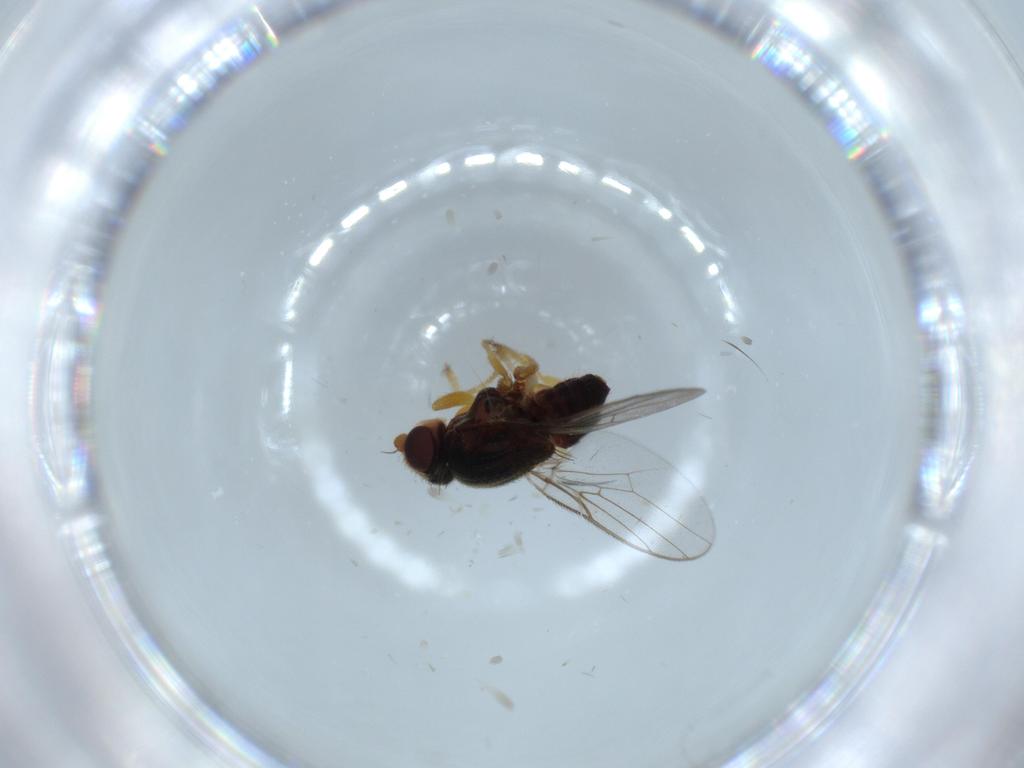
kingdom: Animalia
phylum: Arthropoda
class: Insecta
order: Diptera
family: Chloropidae
